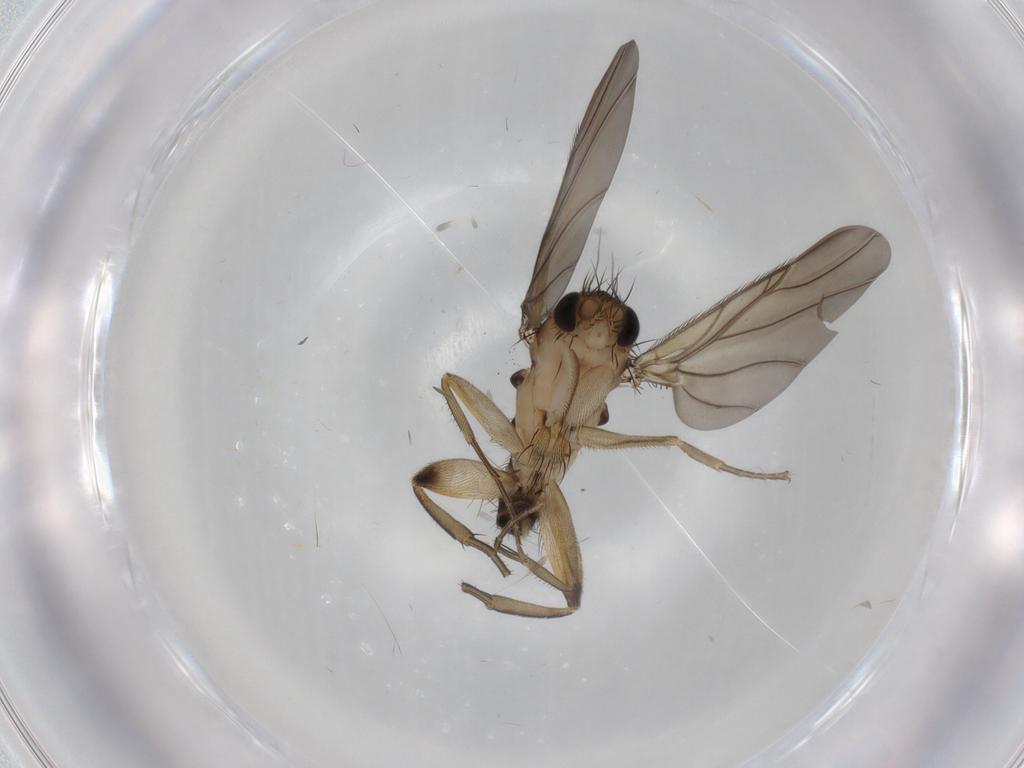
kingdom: Animalia
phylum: Arthropoda
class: Insecta
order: Diptera
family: Phoridae
